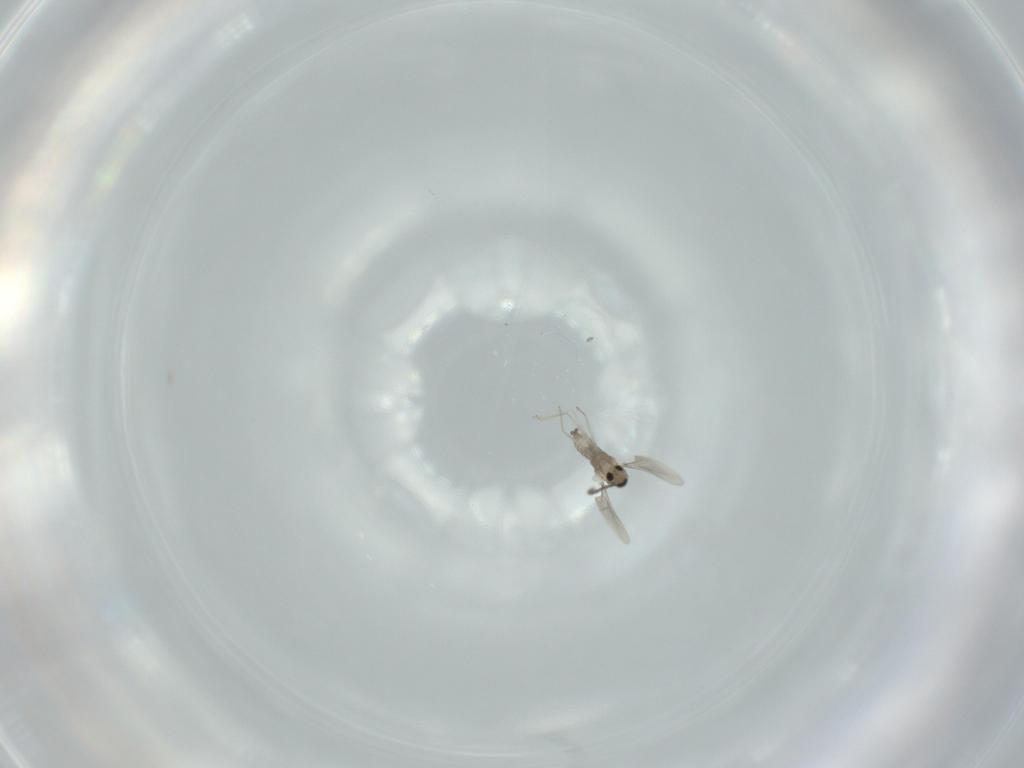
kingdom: Animalia
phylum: Arthropoda
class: Insecta
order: Diptera
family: Cecidomyiidae
